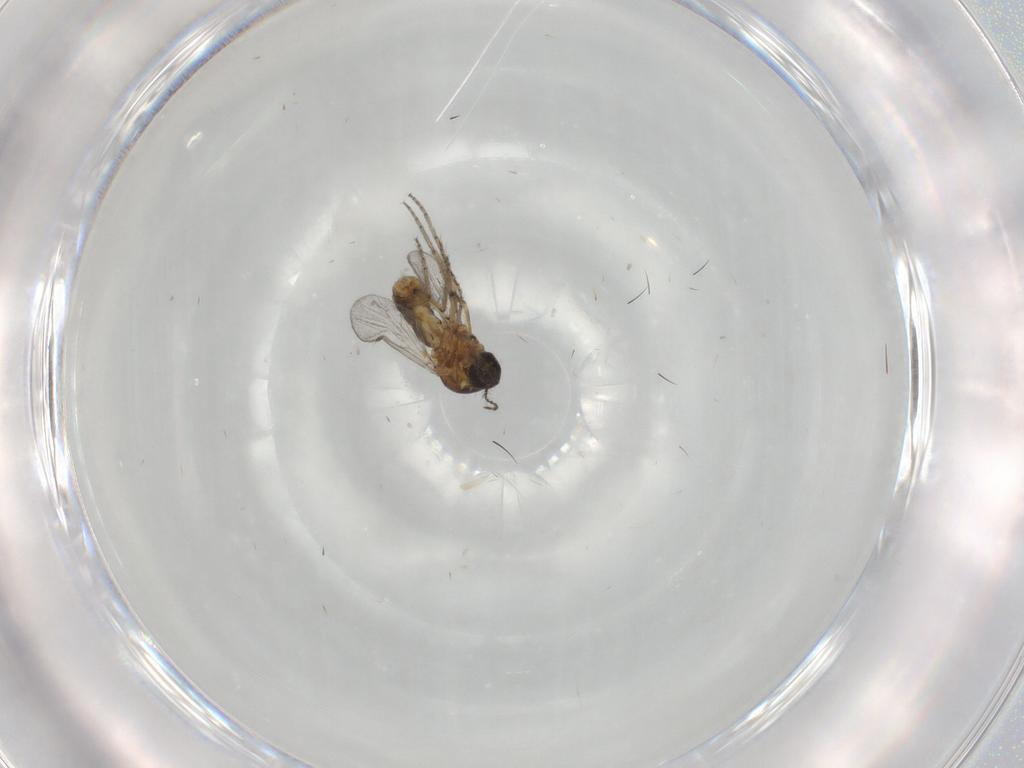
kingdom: Animalia
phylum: Arthropoda
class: Insecta
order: Diptera
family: Ceratopogonidae
